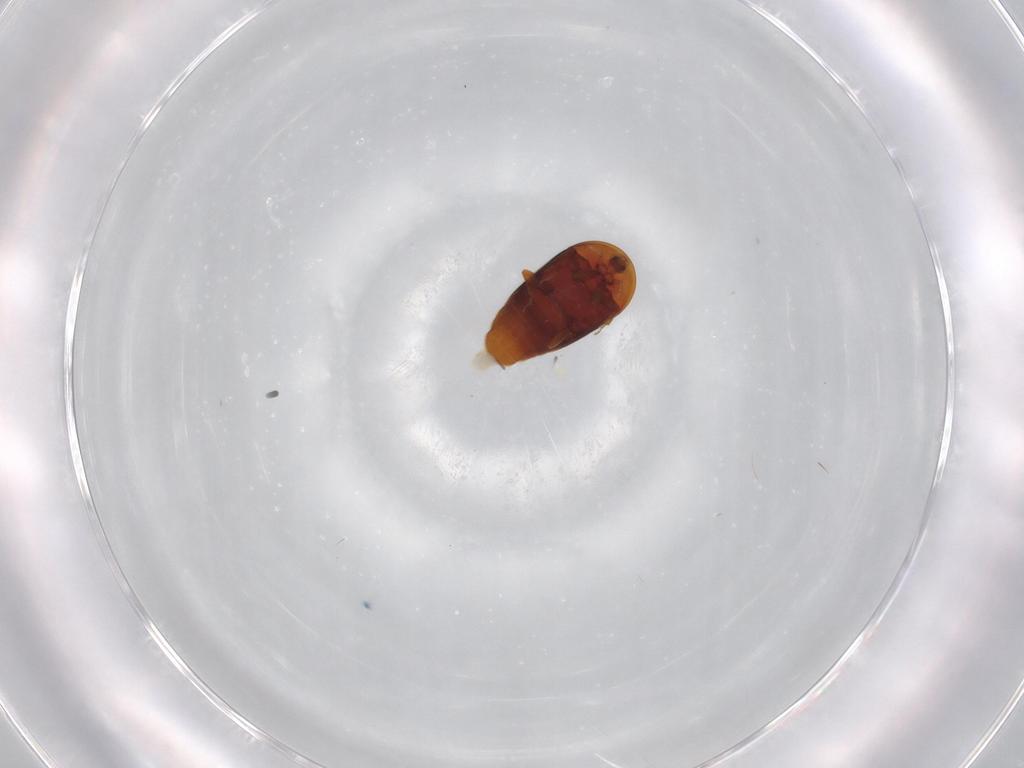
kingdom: Animalia
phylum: Arthropoda
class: Insecta
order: Coleoptera
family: Corylophidae
